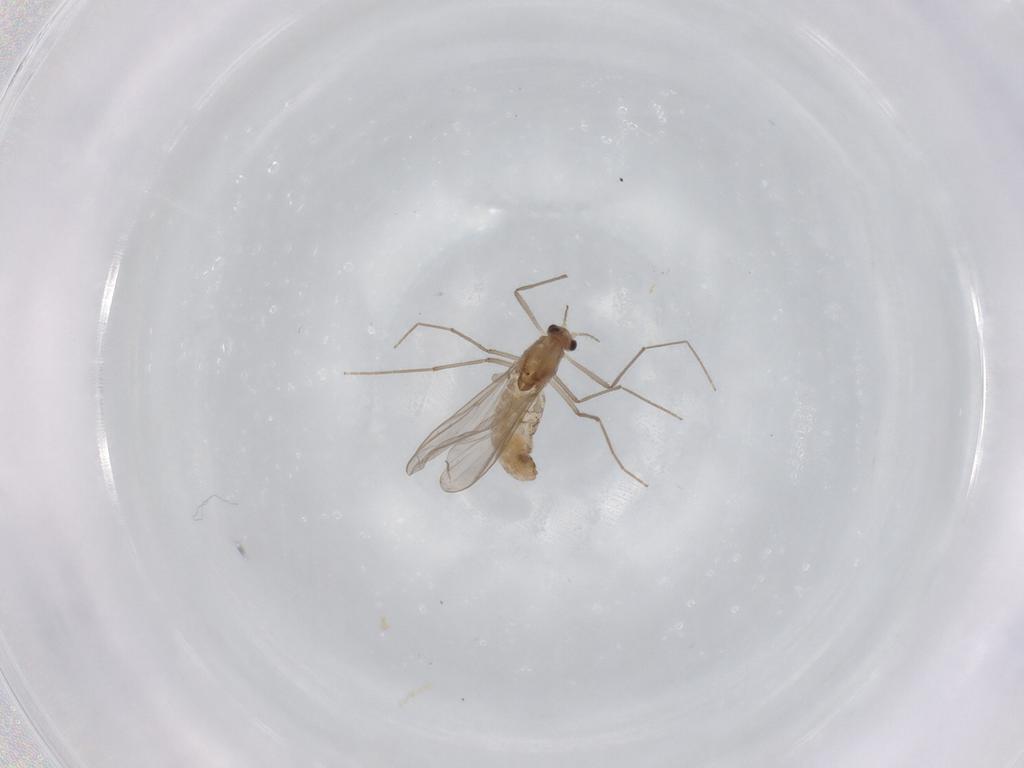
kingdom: Animalia
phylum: Arthropoda
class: Insecta
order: Diptera
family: Chironomidae
